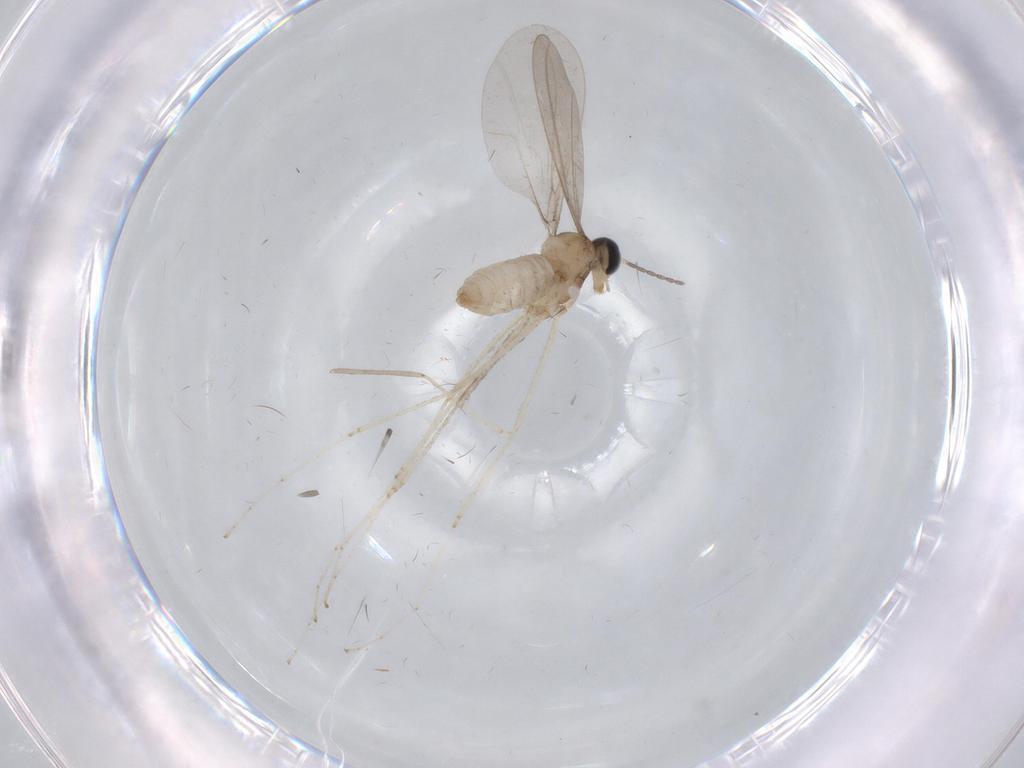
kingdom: Animalia
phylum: Arthropoda
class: Insecta
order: Diptera
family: Cecidomyiidae
